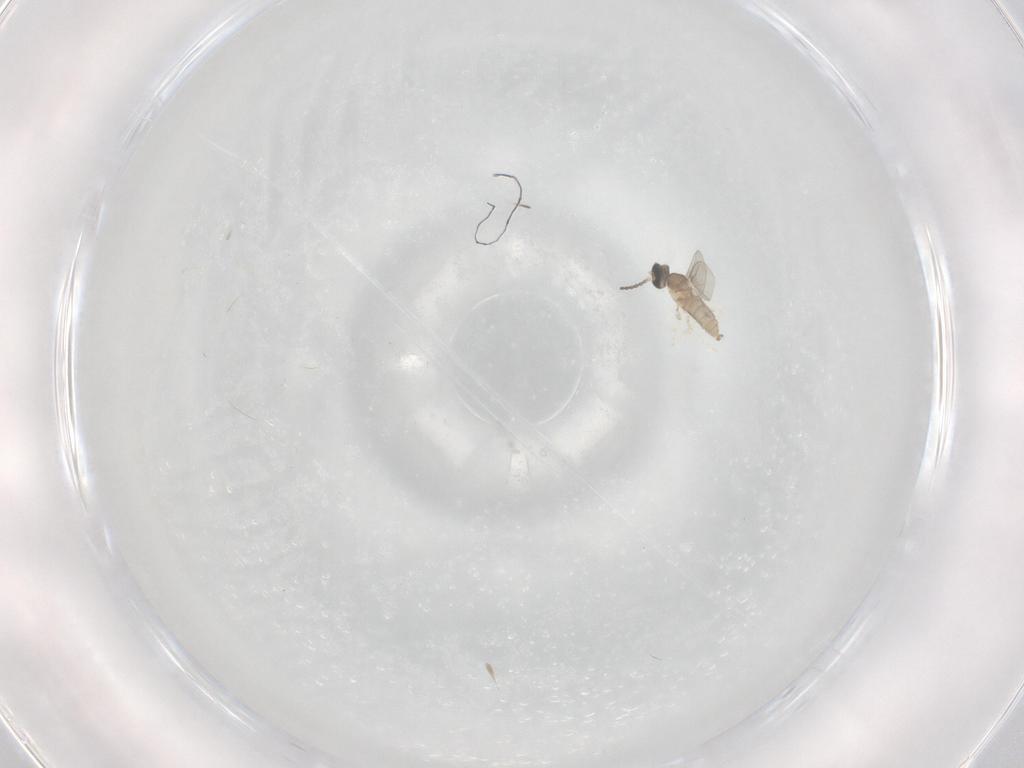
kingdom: Animalia
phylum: Arthropoda
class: Insecta
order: Diptera
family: Cecidomyiidae
